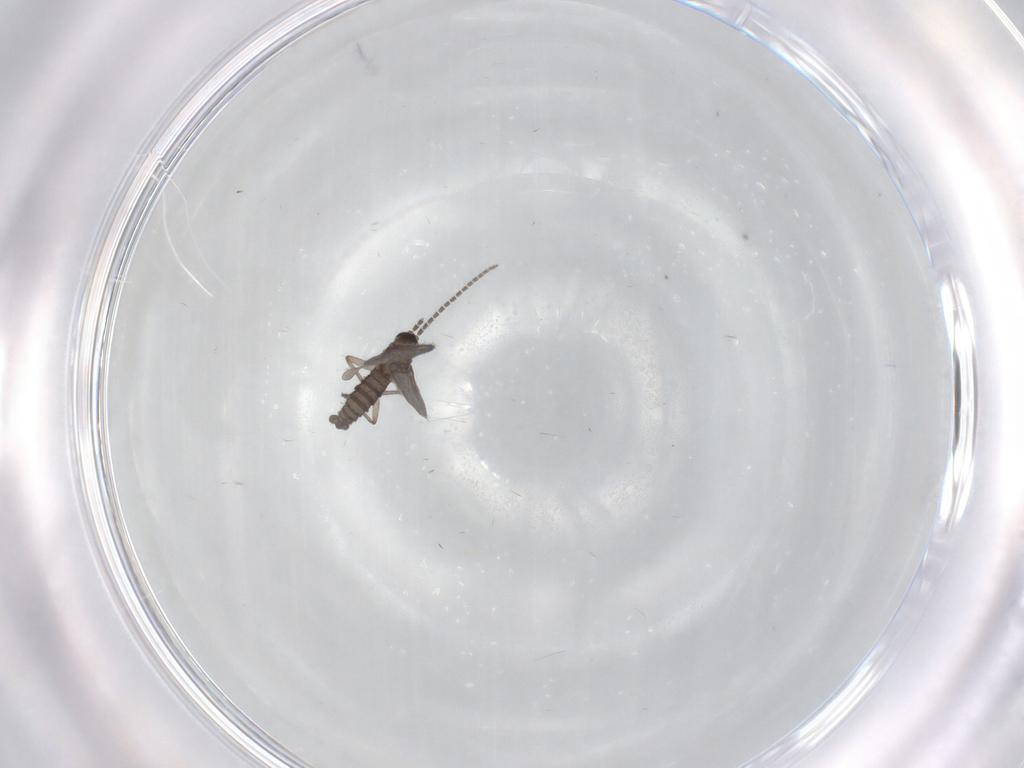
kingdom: Animalia
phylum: Arthropoda
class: Insecta
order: Diptera
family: Sciaridae
